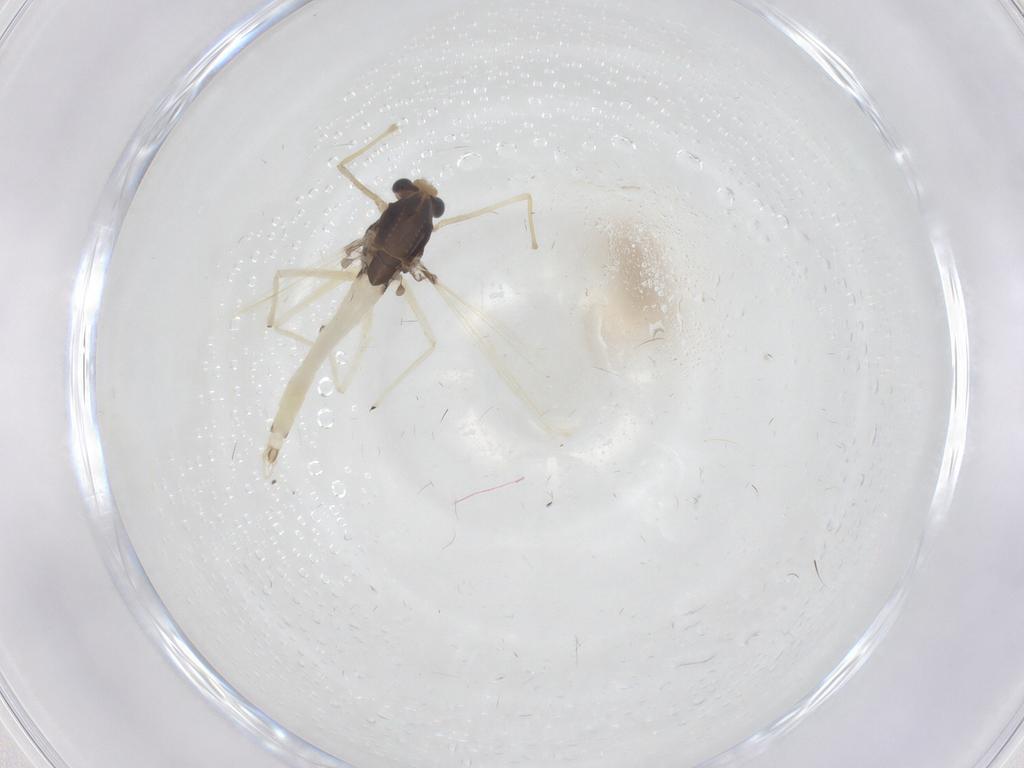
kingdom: Animalia
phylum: Arthropoda
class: Insecta
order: Diptera
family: Chironomidae
